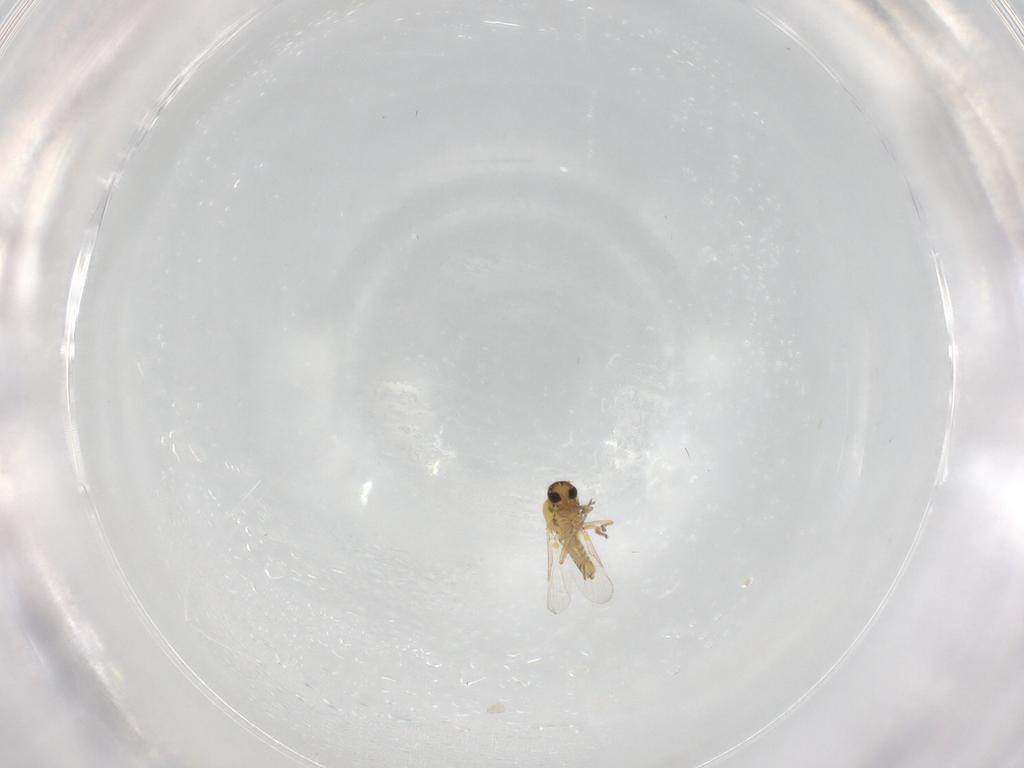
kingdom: Animalia
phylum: Arthropoda
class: Insecta
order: Diptera
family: Ceratopogonidae
